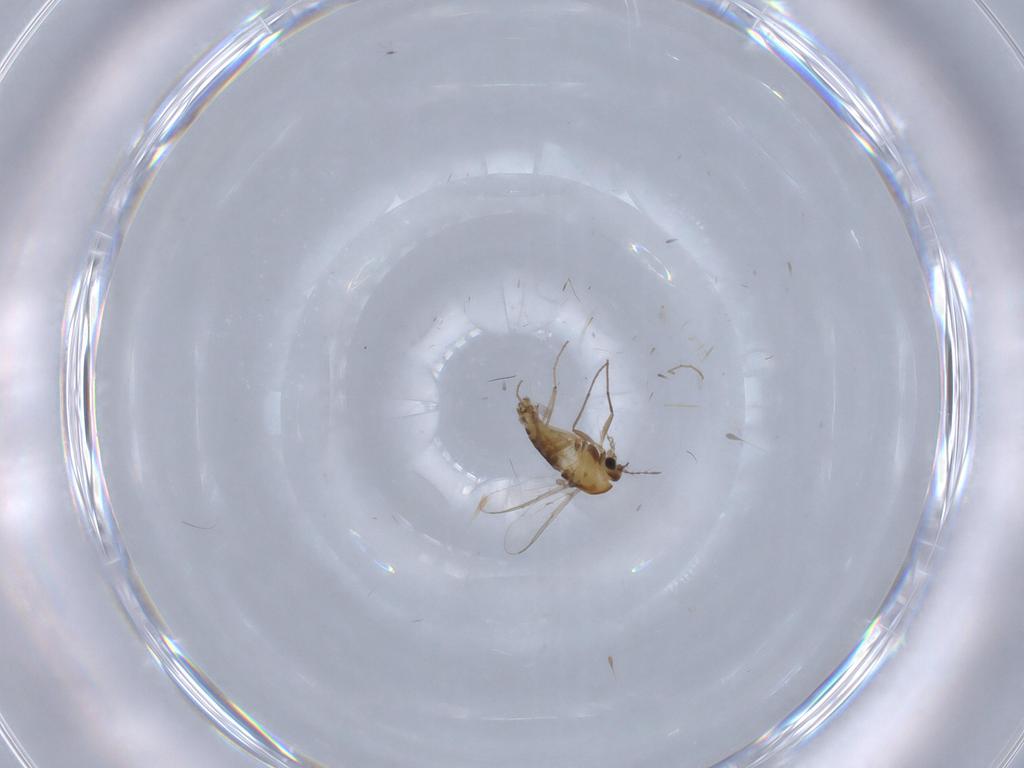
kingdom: Animalia
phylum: Arthropoda
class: Insecta
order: Diptera
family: Chironomidae
